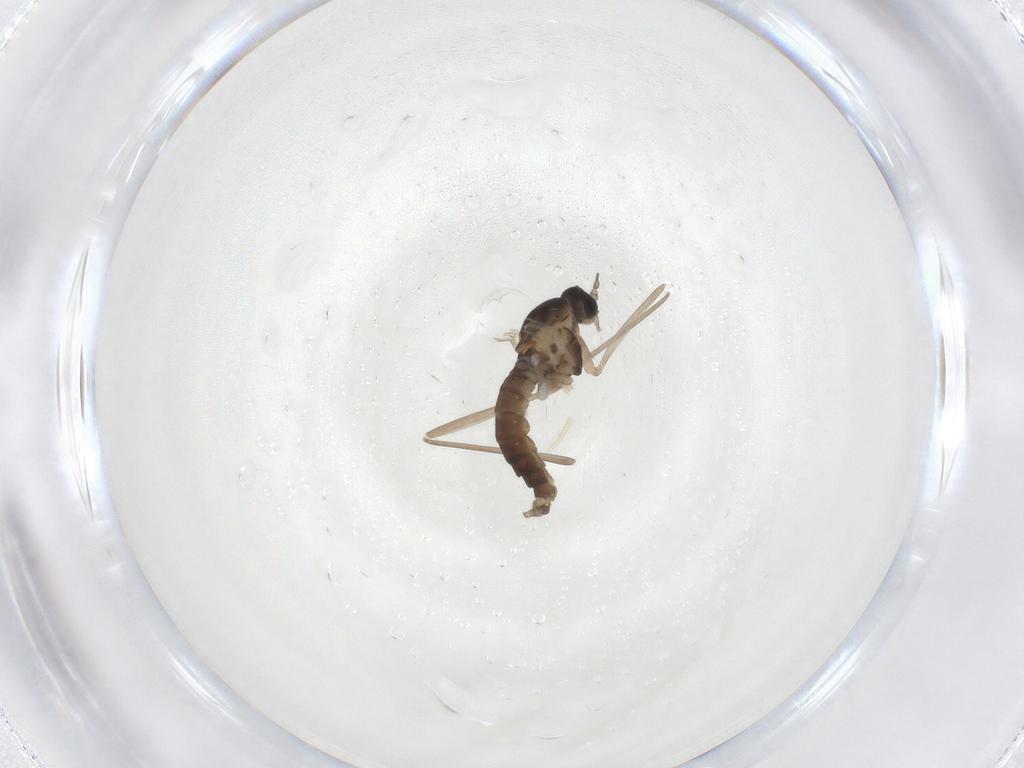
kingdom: Animalia
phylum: Arthropoda
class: Insecta
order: Diptera
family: Cecidomyiidae
